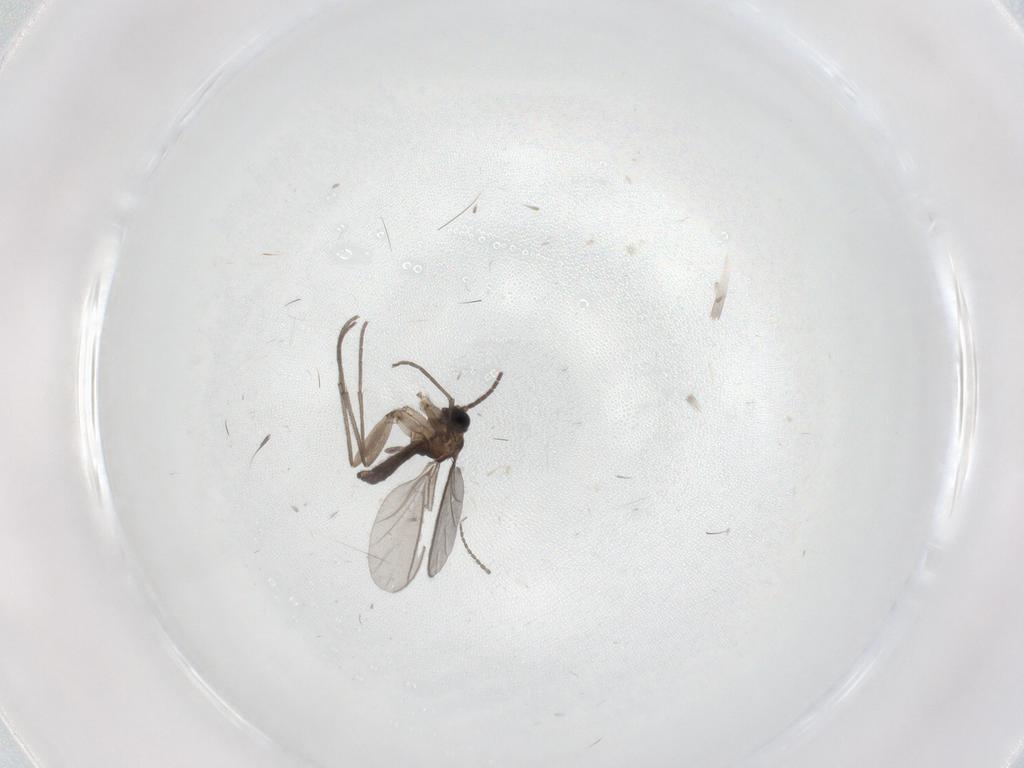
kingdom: Animalia
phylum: Arthropoda
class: Insecta
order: Diptera
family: Sciaridae
